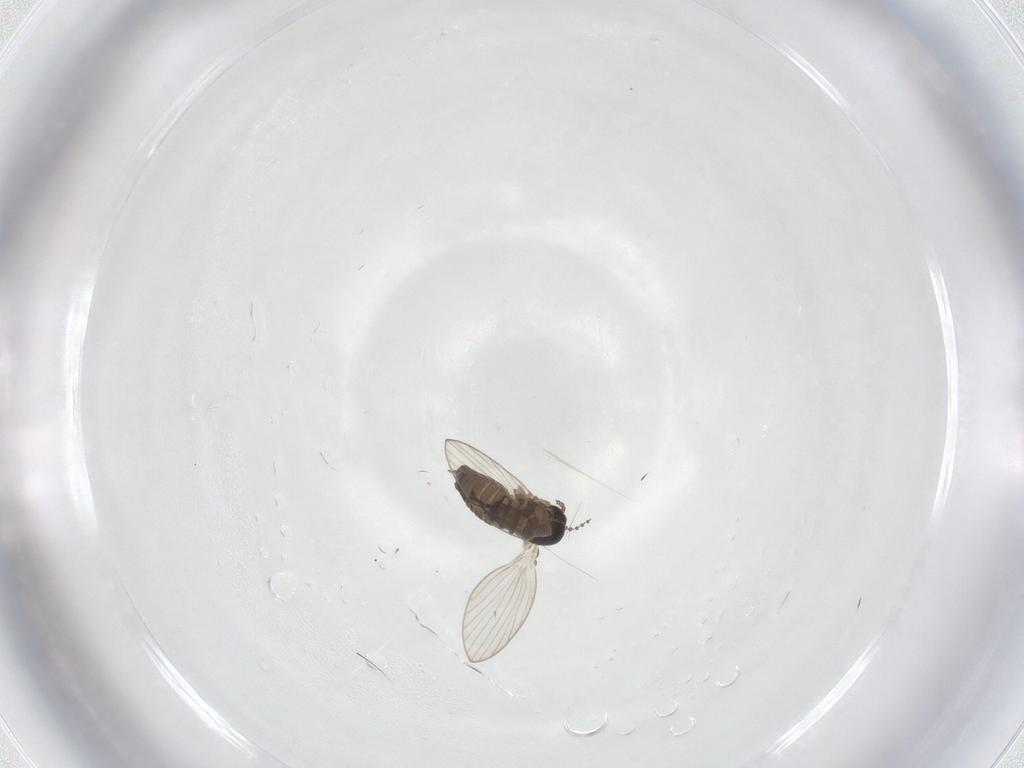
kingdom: Animalia
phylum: Arthropoda
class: Insecta
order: Diptera
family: Psychodidae
